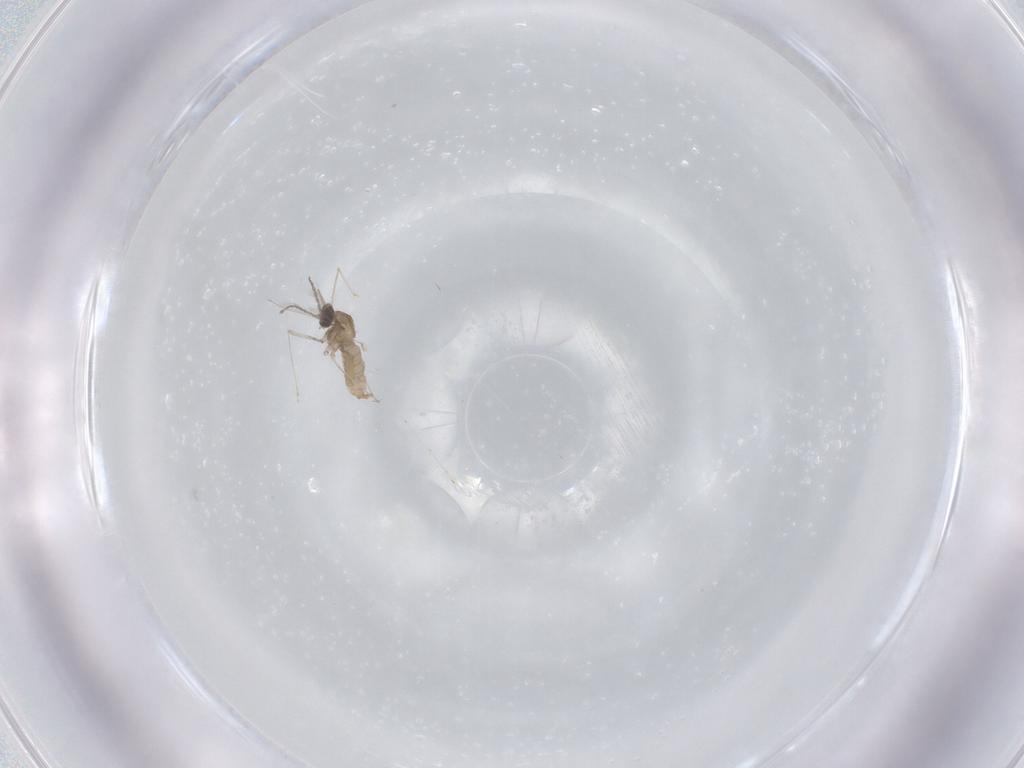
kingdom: Animalia
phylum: Arthropoda
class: Insecta
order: Diptera
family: Cecidomyiidae
